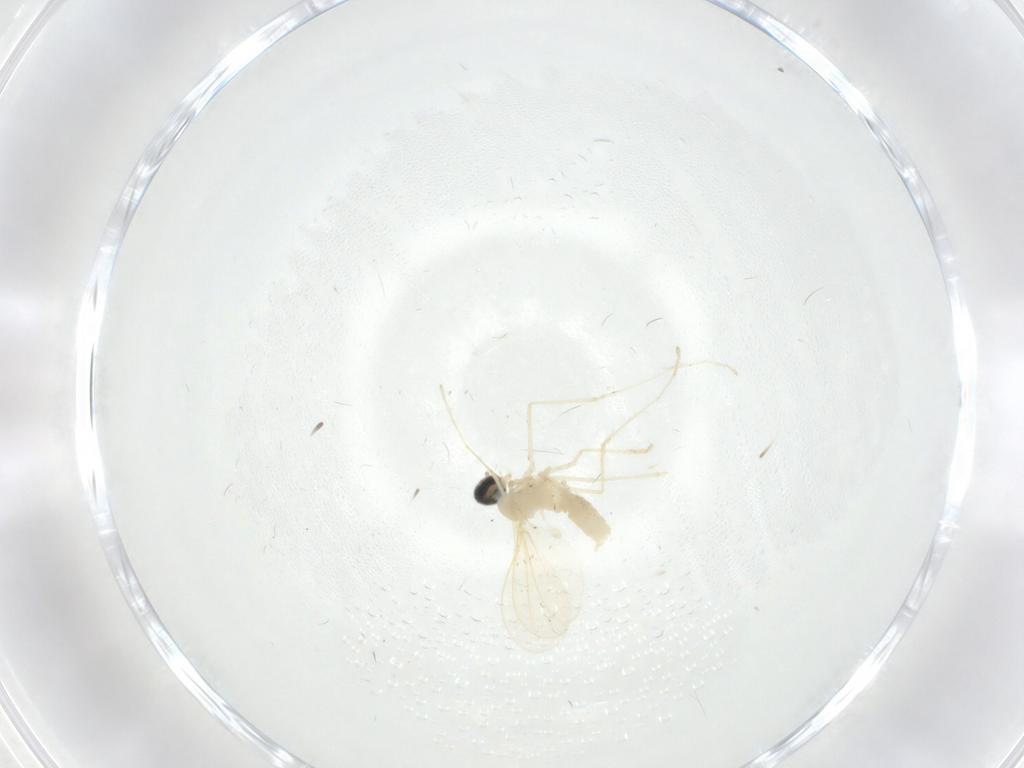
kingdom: Animalia
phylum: Arthropoda
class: Insecta
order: Diptera
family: Cecidomyiidae
